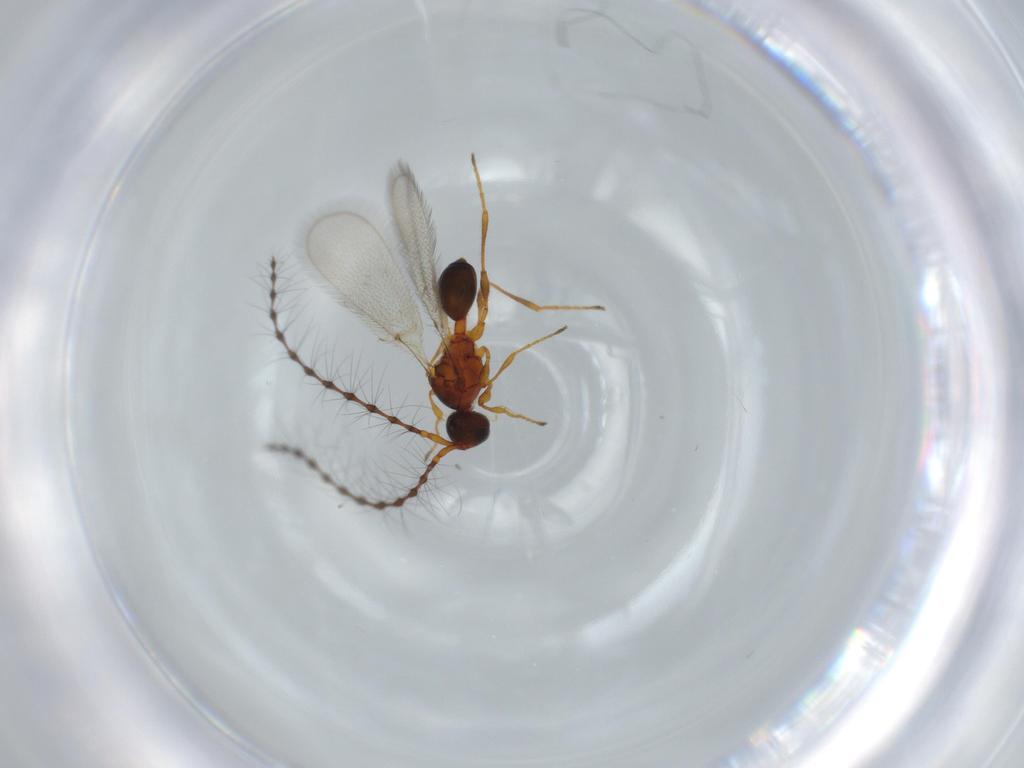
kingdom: Animalia
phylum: Arthropoda
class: Insecta
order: Hymenoptera
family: Diapriidae
